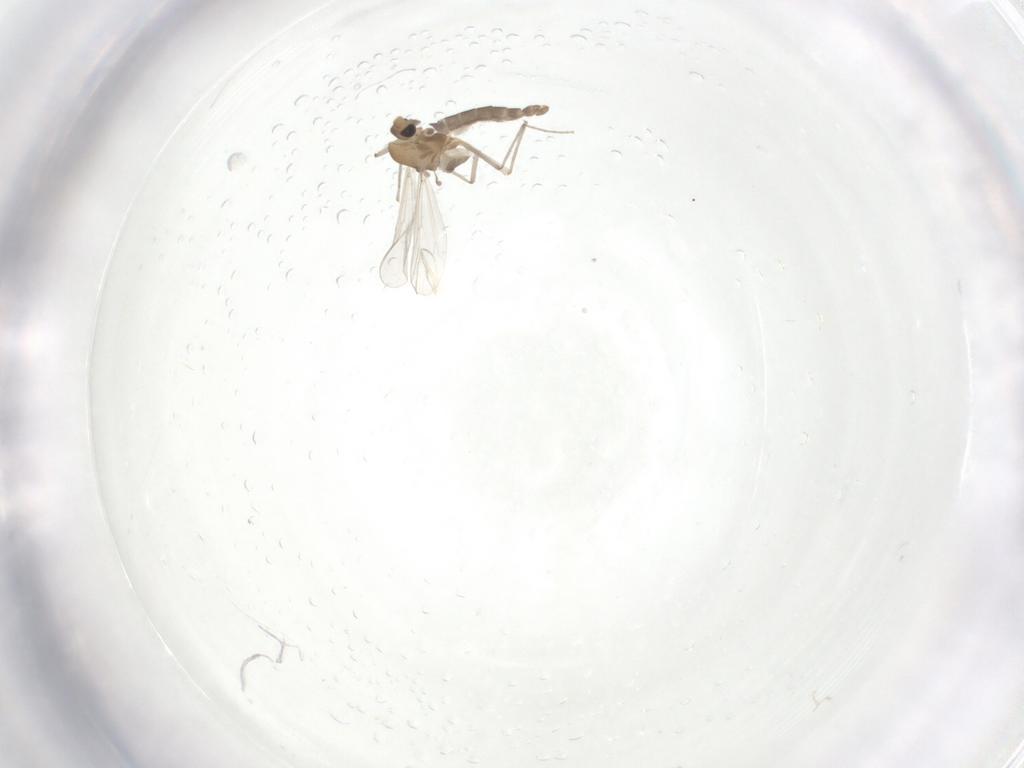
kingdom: Animalia
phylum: Arthropoda
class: Insecta
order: Diptera
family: Chironomidae
